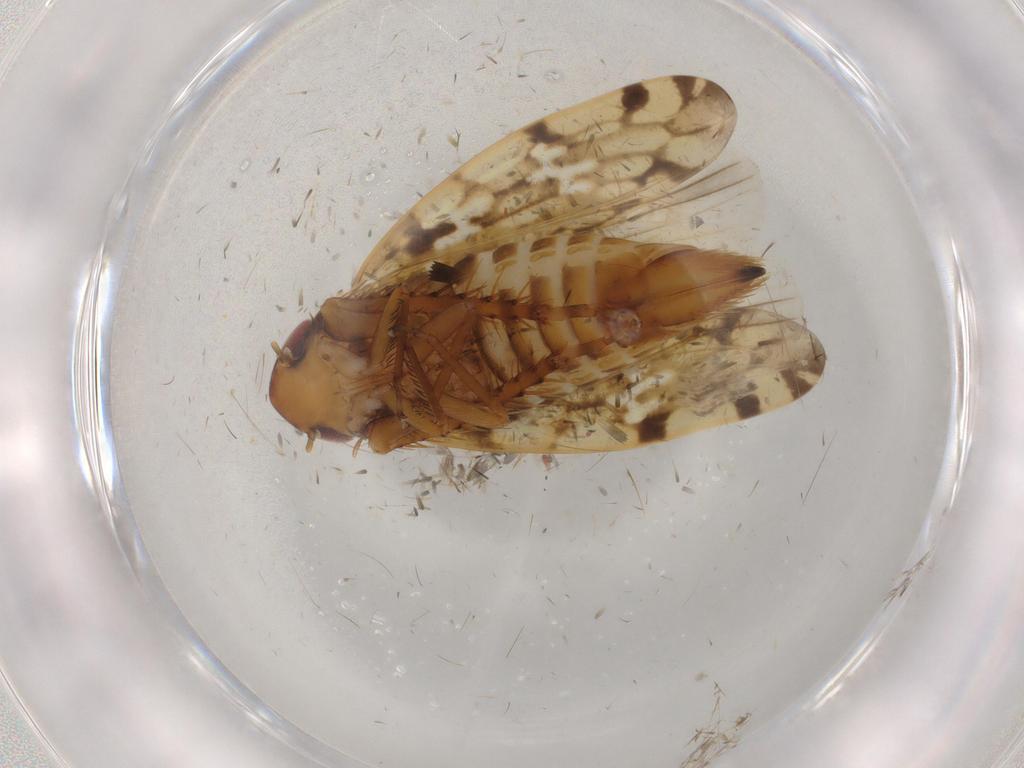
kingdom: Animalia
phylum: Arthropoda
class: Insecta
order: Hemiptera
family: Cicadellidae
